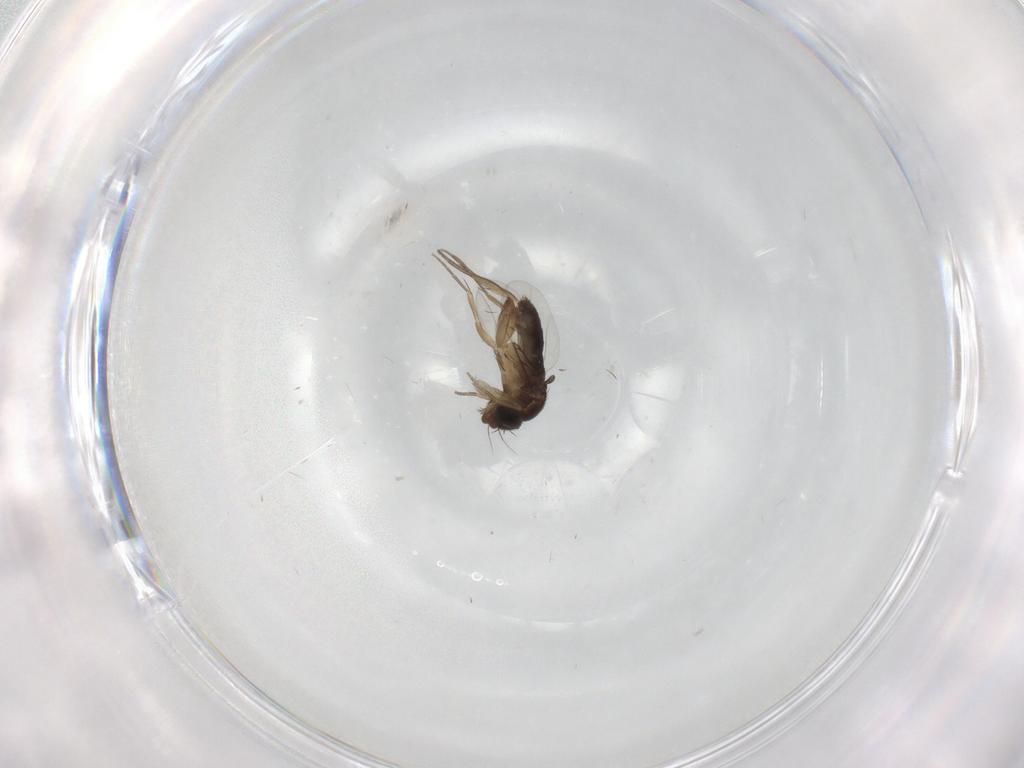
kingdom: Animalia
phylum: Arthropoda
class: Insecta
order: Diptera
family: Phoridae
